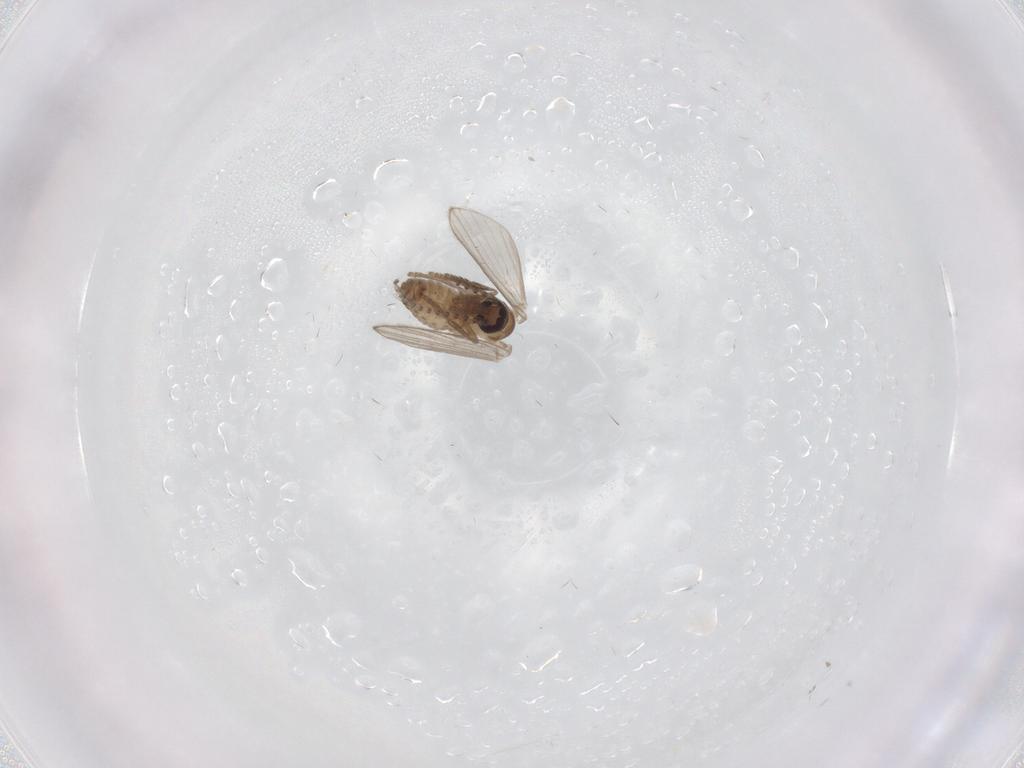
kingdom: Animalia
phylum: Arthropoda
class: Insecta
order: Diptera
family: Psychodidae
